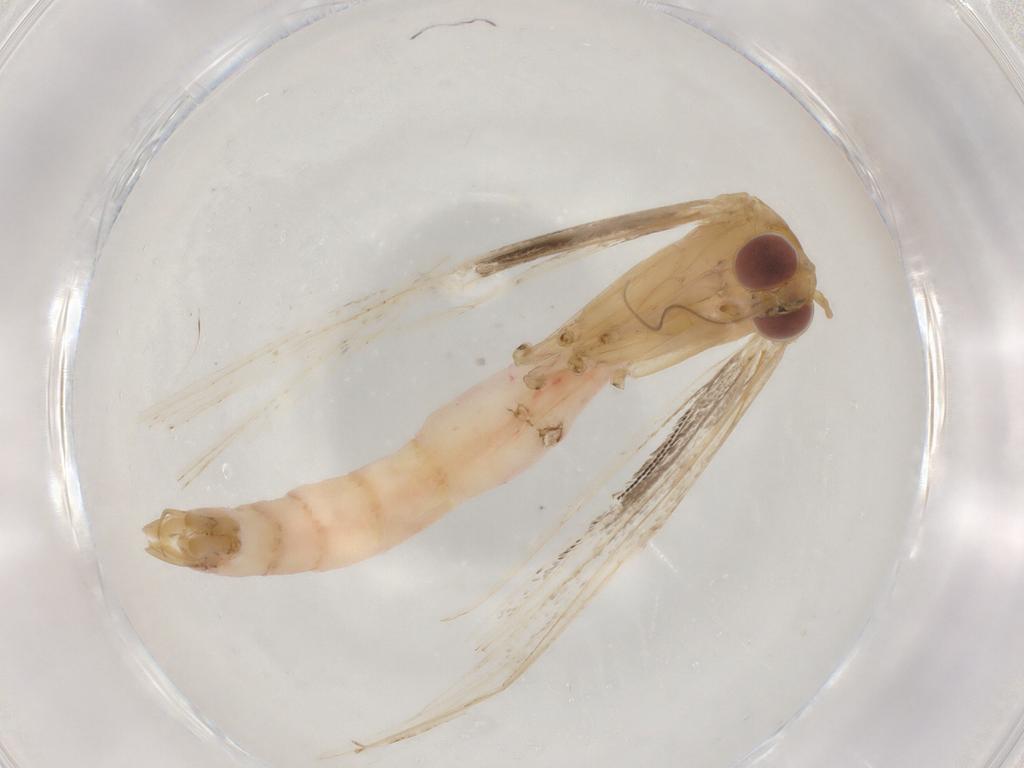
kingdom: Animalia
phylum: Arthropoda
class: Insecta
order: Lepidoptera
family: Pterophoridae
